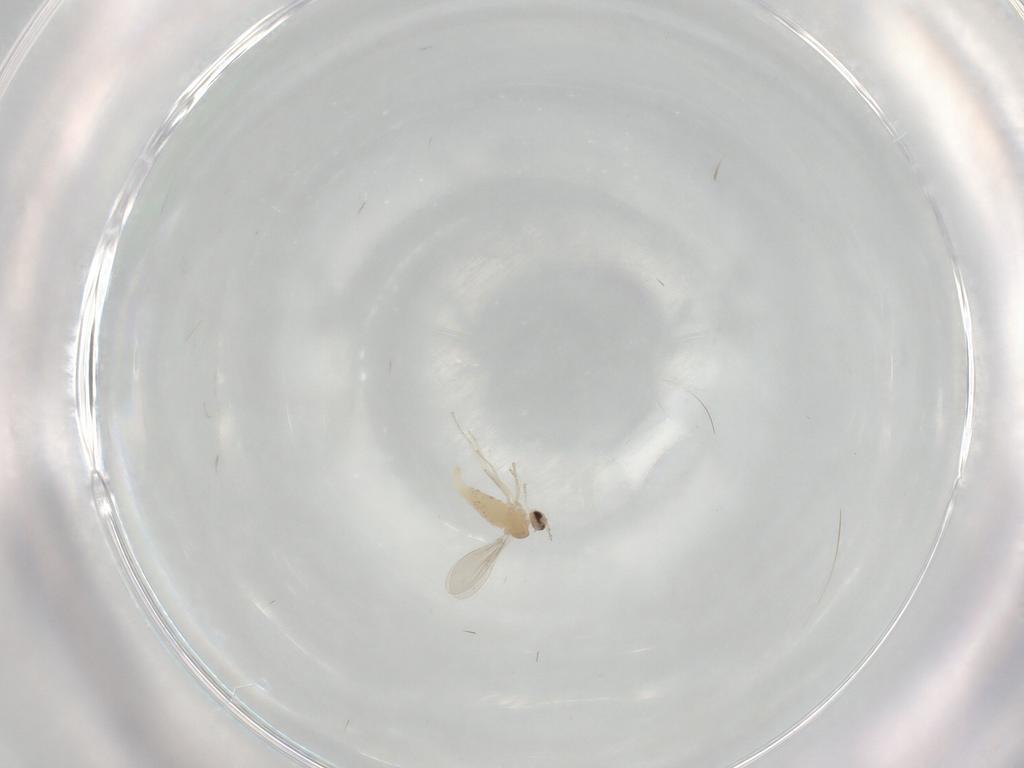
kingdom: Animalia
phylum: Arthropoda
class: Insecta
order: Diptera
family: Cecidomyiidae
